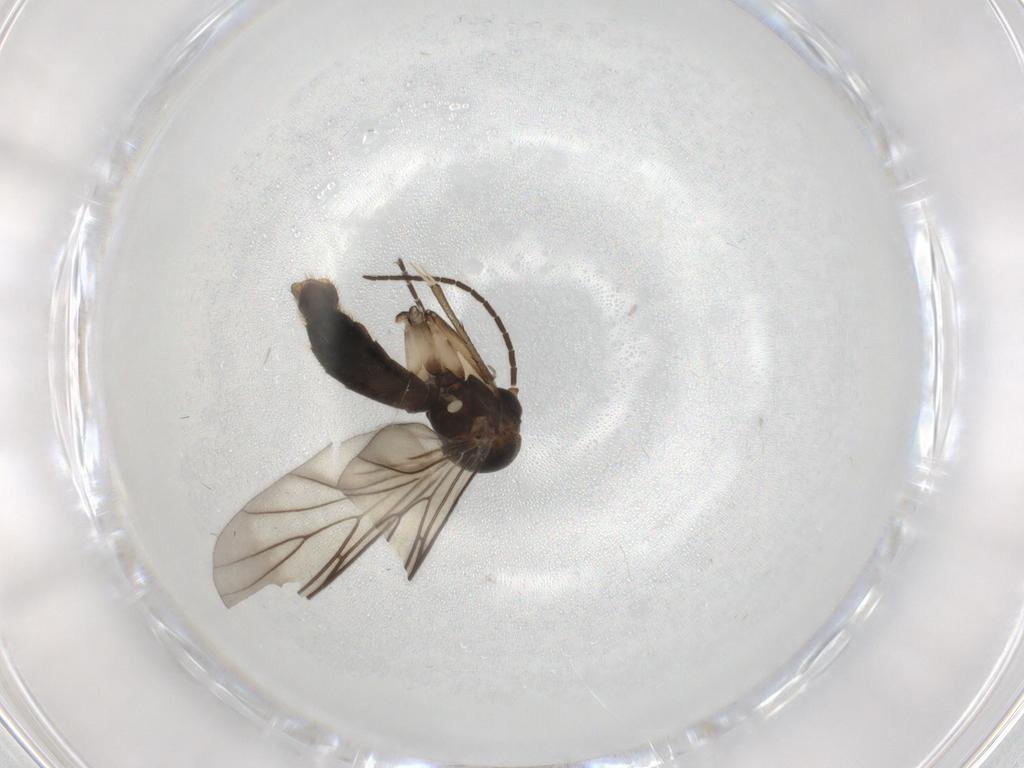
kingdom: Animalia
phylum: Arthropoda
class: Insecta
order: Diptera
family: Mycetophilidae
